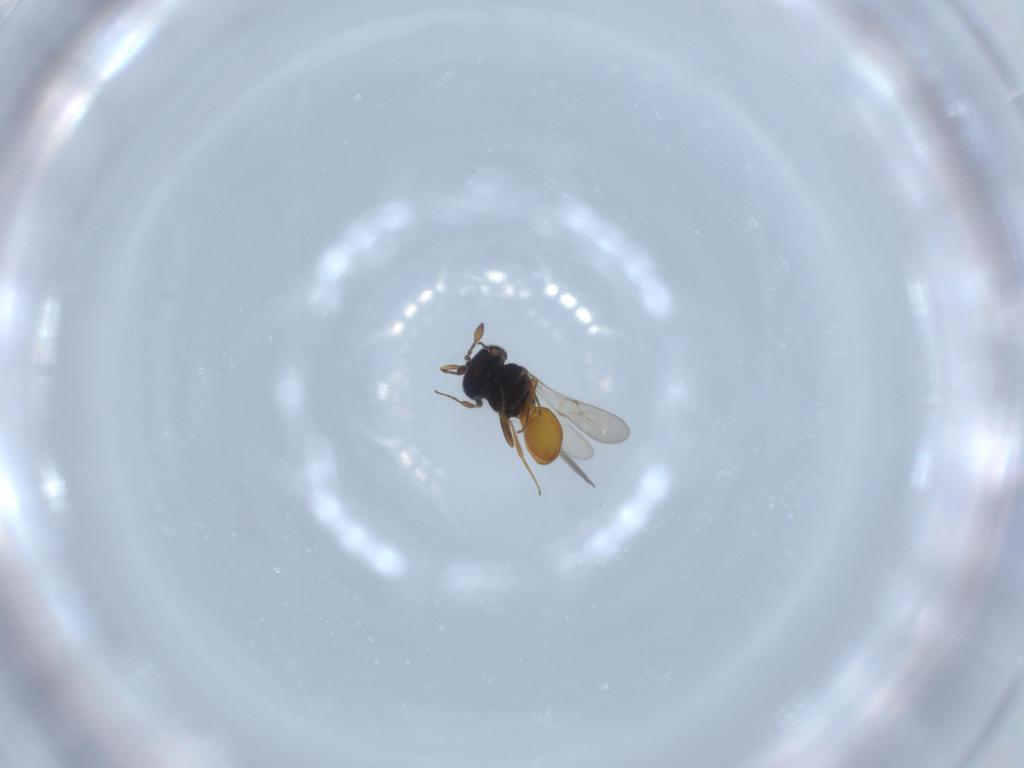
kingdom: Animalia
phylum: Arthropoda
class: Insecta
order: Hymenoptera
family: Scelionidae
